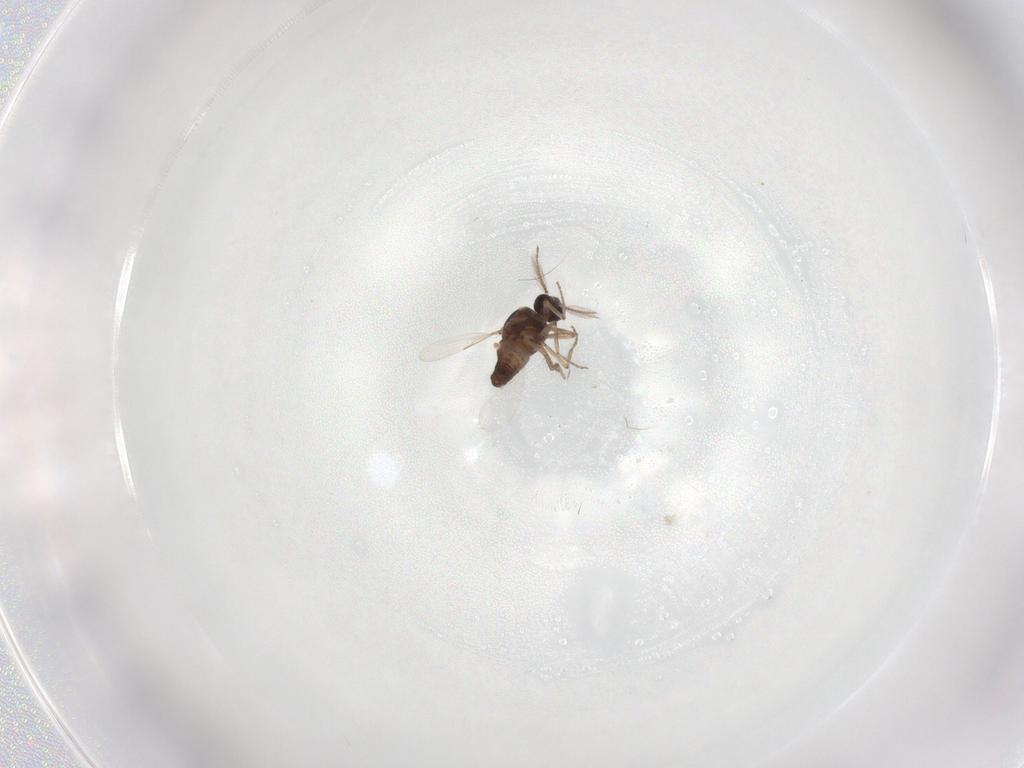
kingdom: Animalia
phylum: Arthropoda
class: Insecta
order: Diptera
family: Ceratopogonidae
